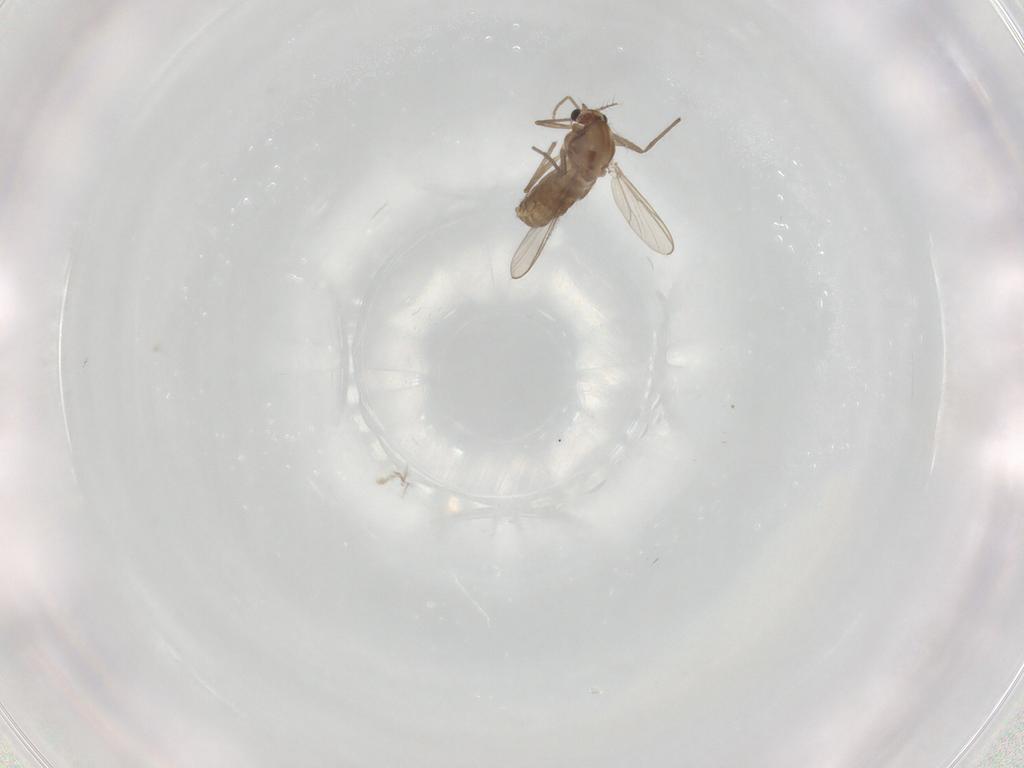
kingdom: Animalia
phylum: Arthropoda
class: Insecta
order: Diptera
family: Chironomidae
